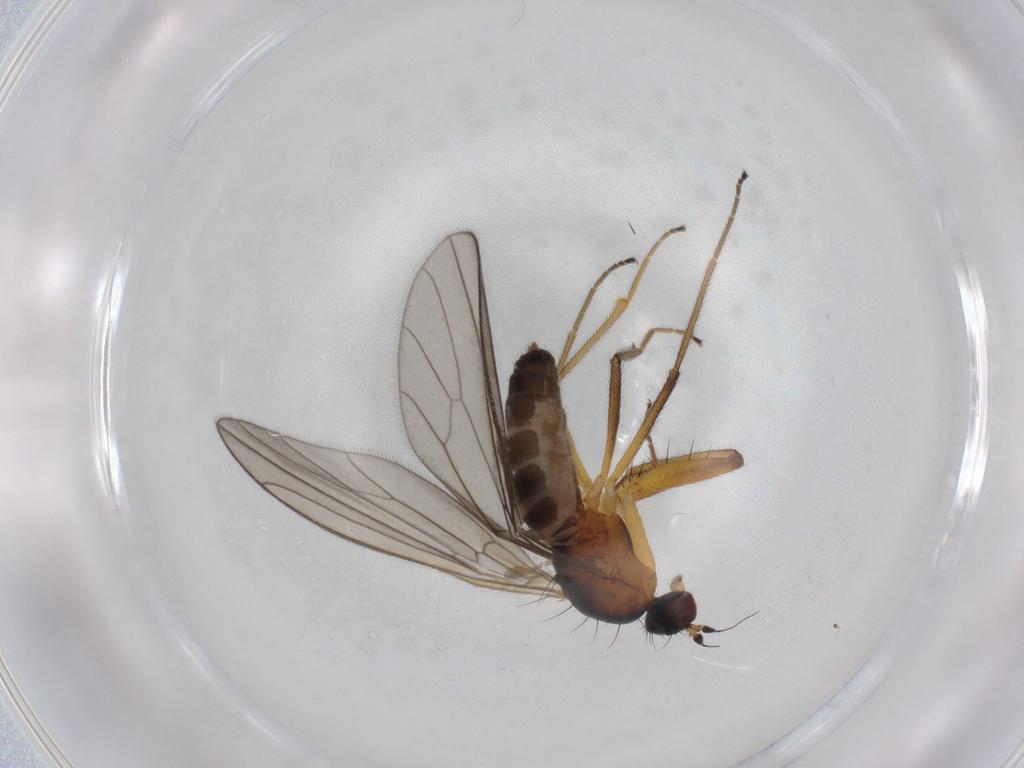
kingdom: Animalia
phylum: Arthropoda
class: Insecta
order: Diptera
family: Empididae
